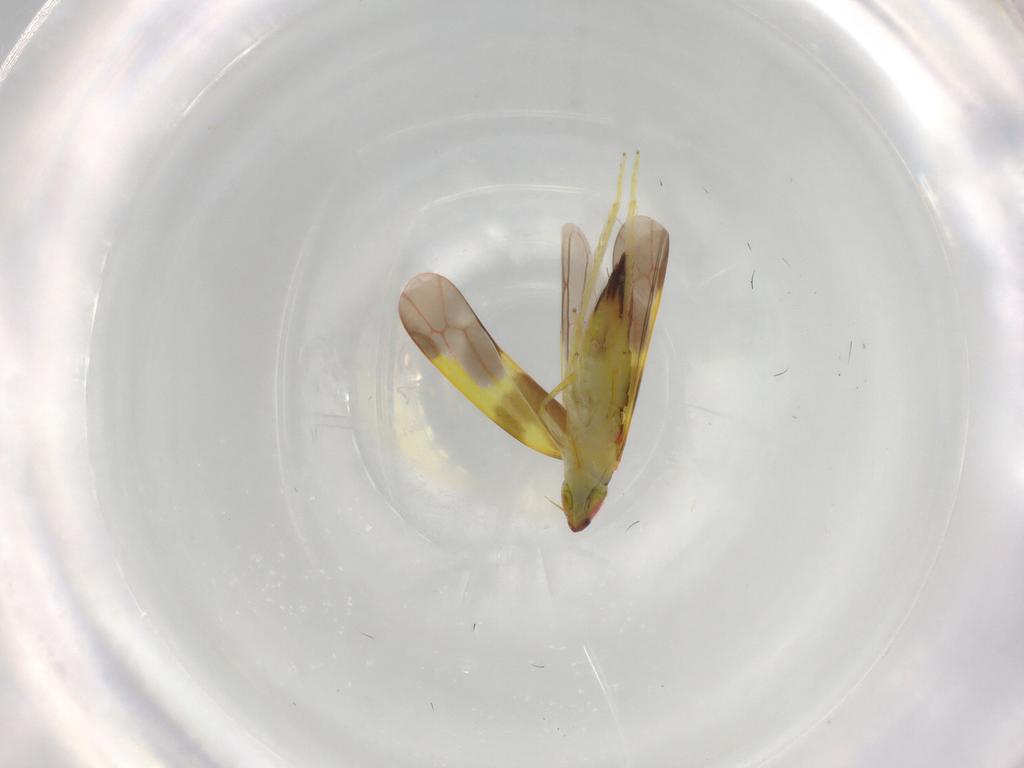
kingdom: Animalia
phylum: Arthropoda
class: Insecta
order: Hemiptera
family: Cicadellidae
